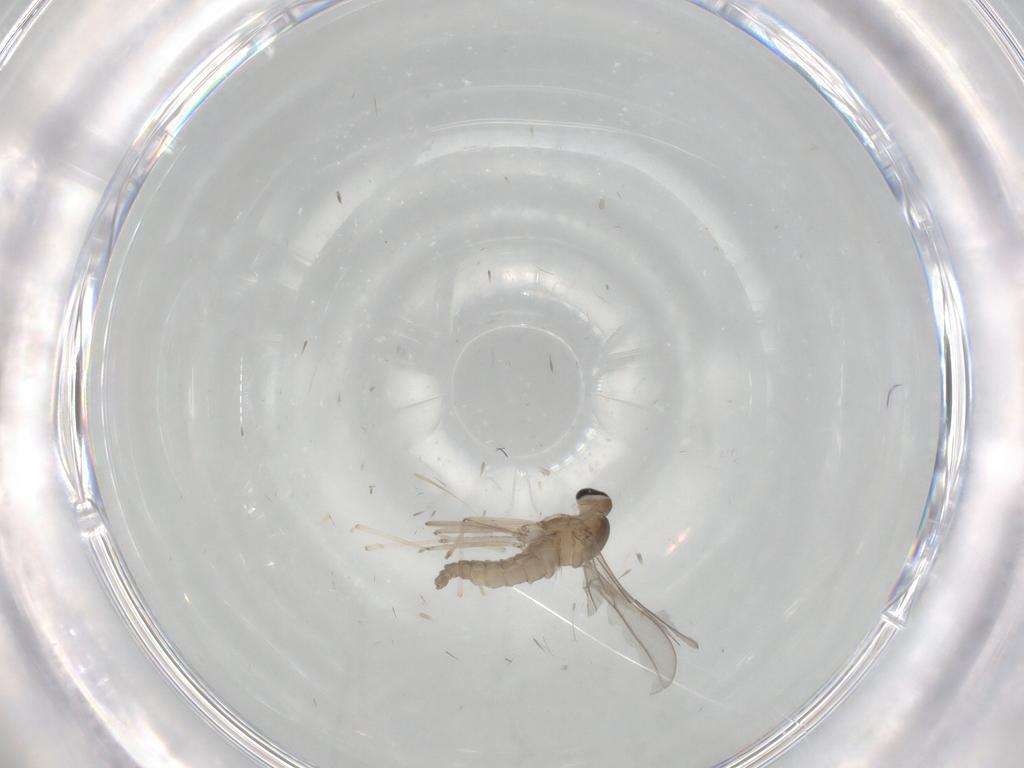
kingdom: Animalia
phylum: Arthropoda
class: Insecta
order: Diptera
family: Cecidomyiidae
